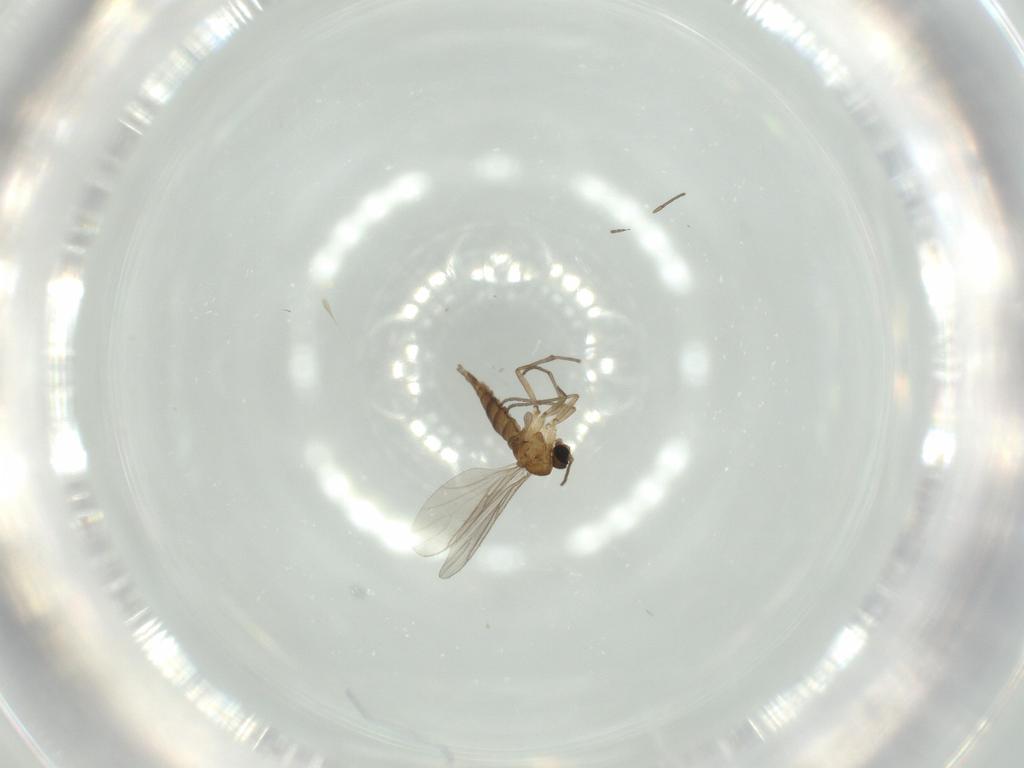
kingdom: Animalia
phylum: Arthropoda
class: Insecta
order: Diptera
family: Sciaridae
